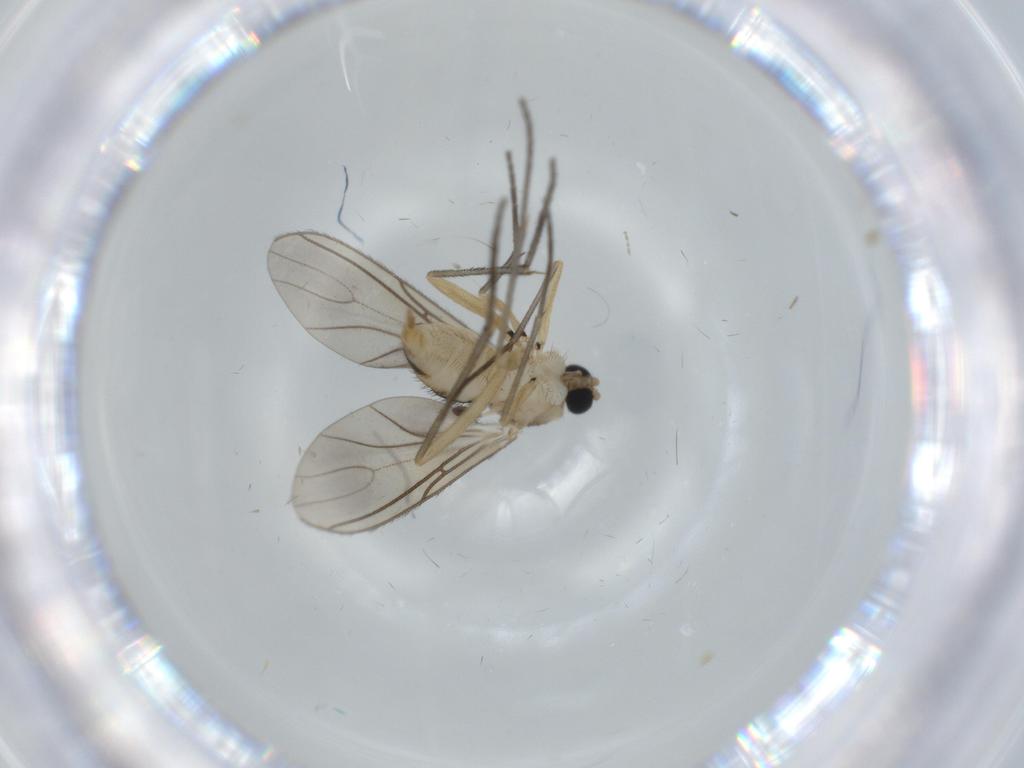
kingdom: Animalia
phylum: Arthropoda
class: Insecta
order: Diptera
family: Sciaridae
